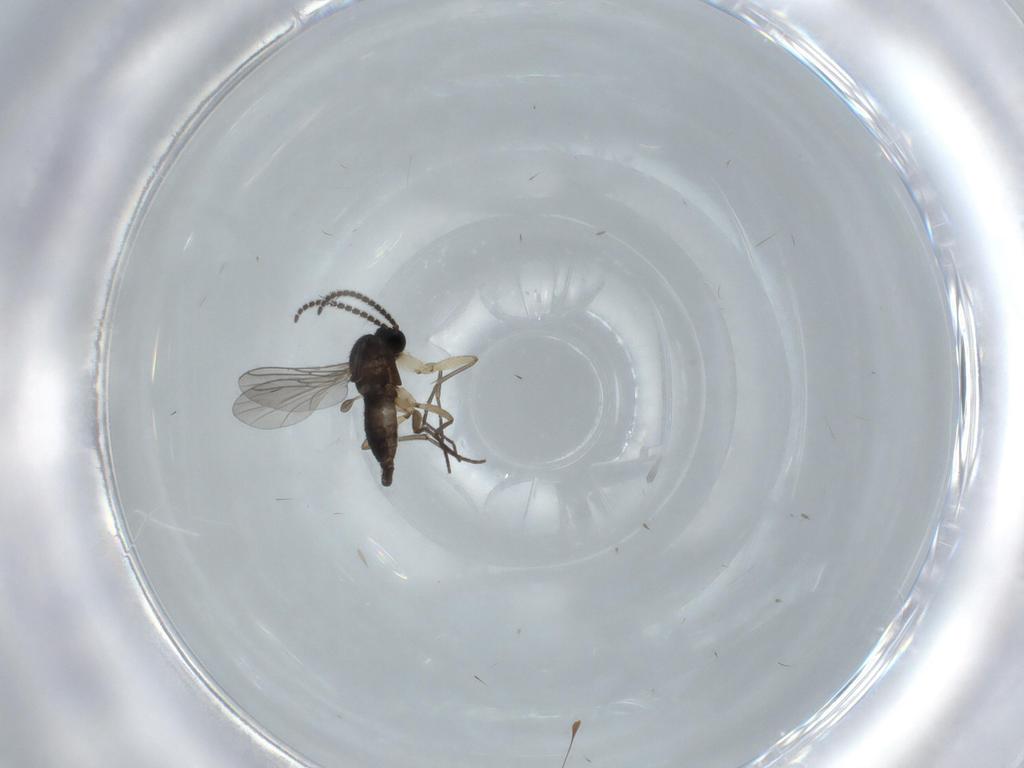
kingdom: Animalia
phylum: Arthropoda
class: Insecta
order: Diptera
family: Sciaridae
